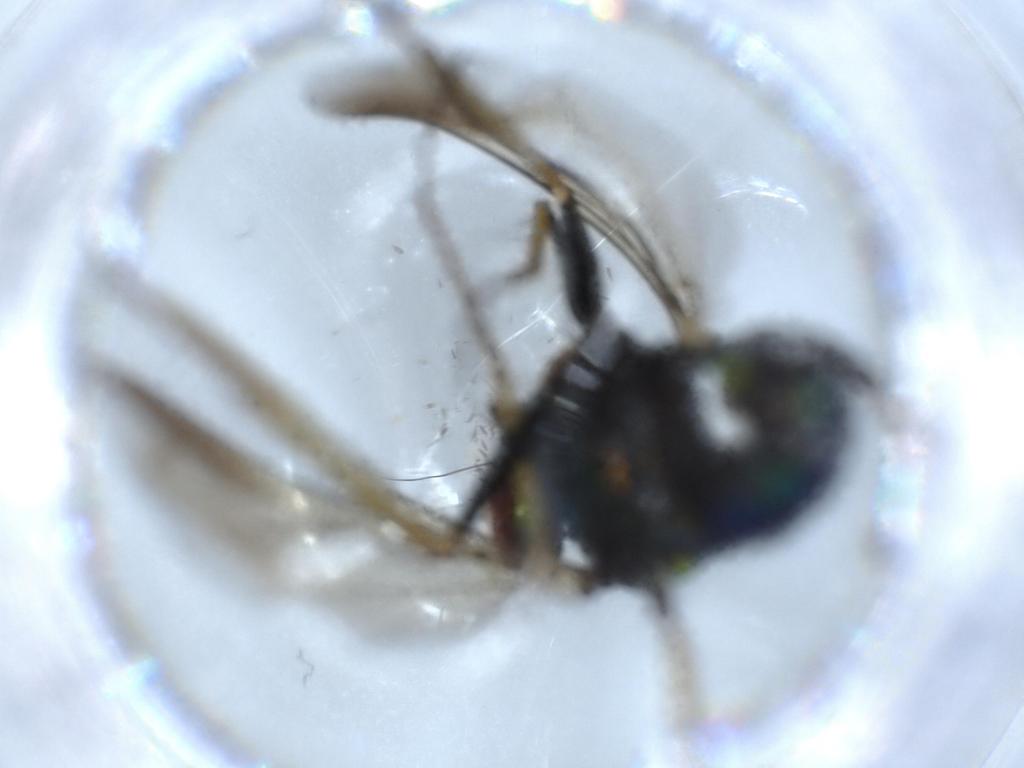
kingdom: Animalia
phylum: Arthropoda
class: Insecta
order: Diptera
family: Dolichopodidae
